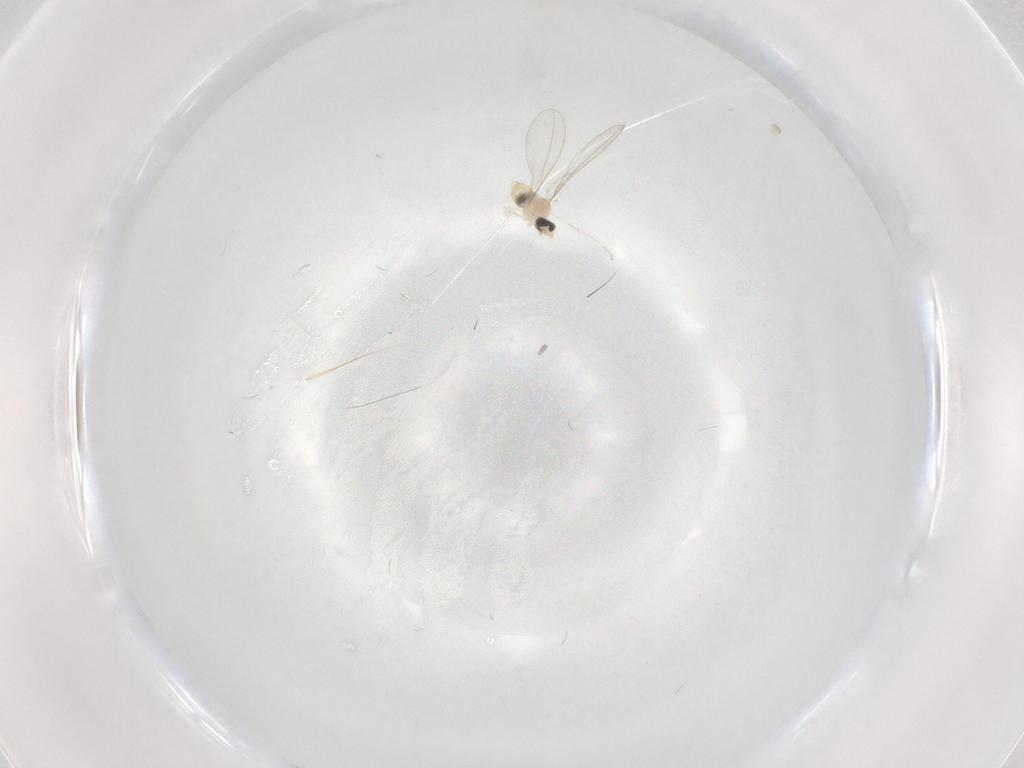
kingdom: Animalia
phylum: Arthropoda
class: Insecta
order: Diptera
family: Cecidomyiidae
